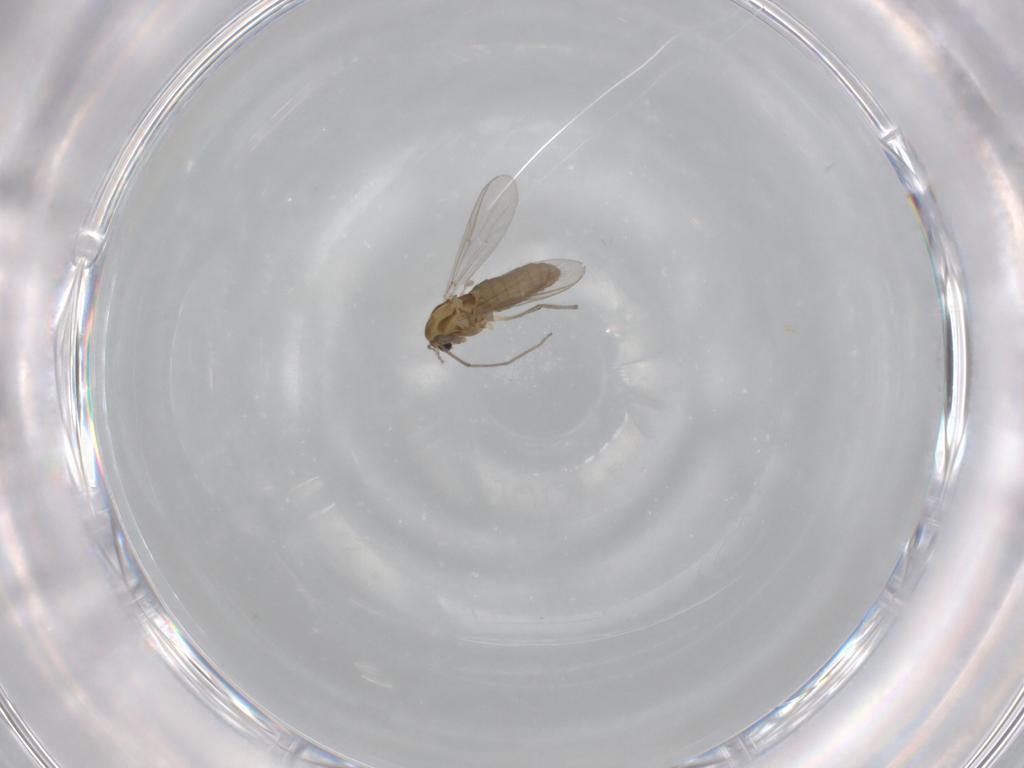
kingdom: Animalia
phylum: Arthropoda
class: Insecta
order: Diptera
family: Chironomidae
